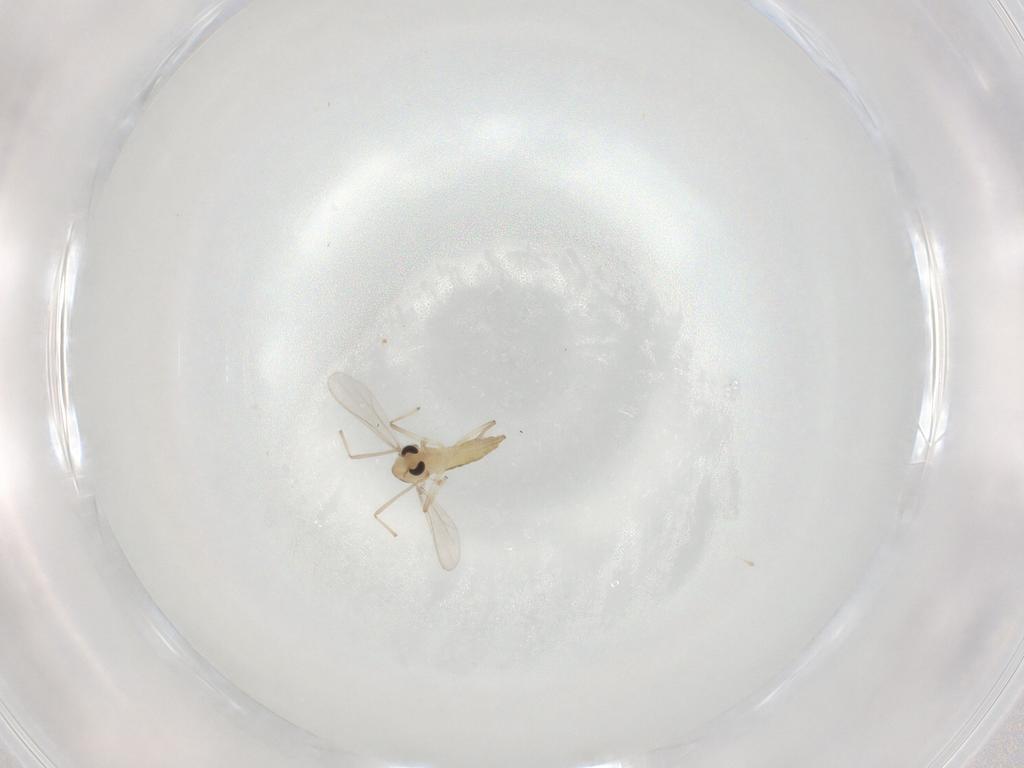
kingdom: Animalia
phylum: Arthropoda
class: Insecta
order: Diptera
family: Chironomidae
